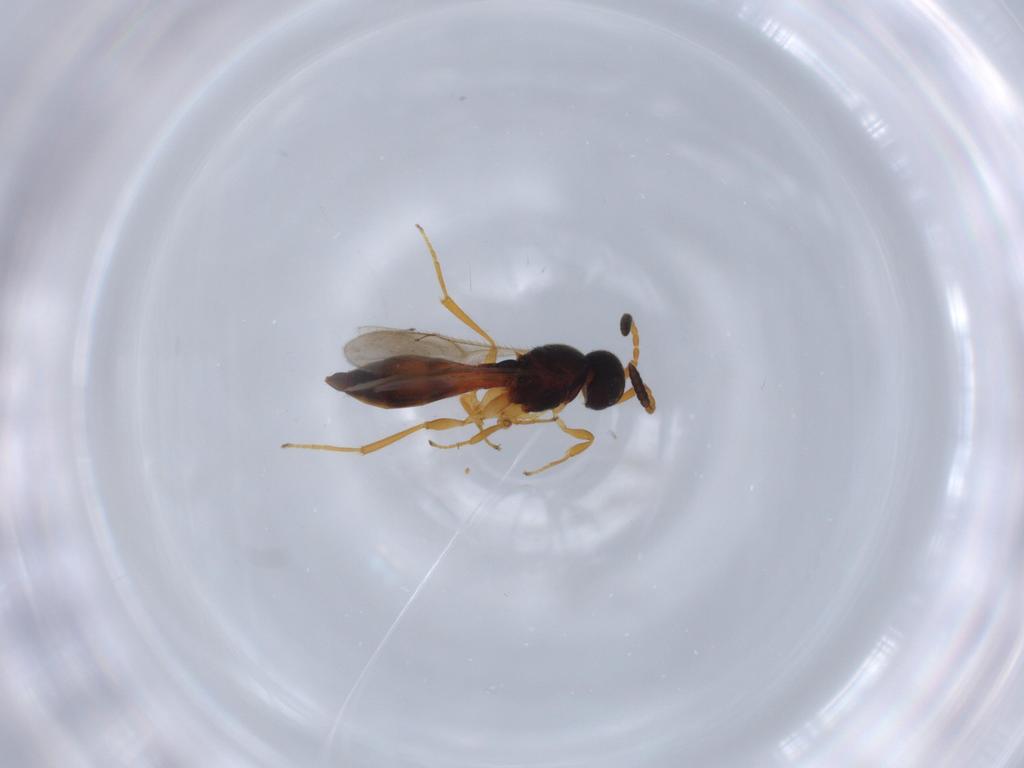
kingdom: Animalia
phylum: Arthropoda
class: Insecta
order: Hymenoptera
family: Scelionidae
